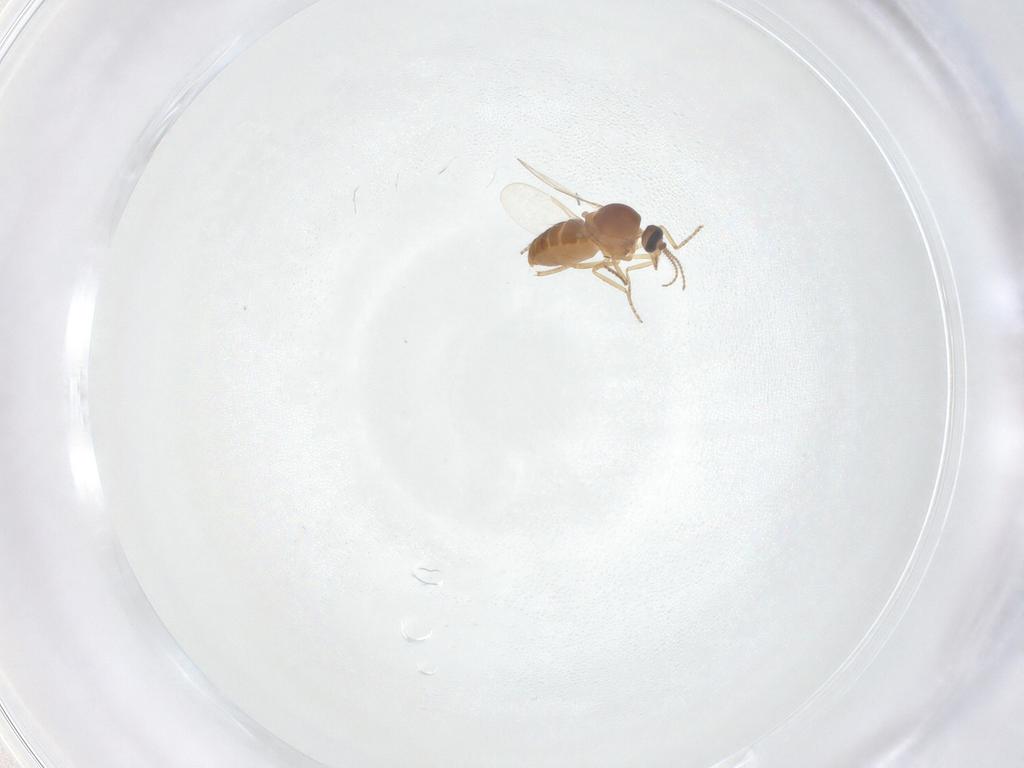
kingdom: Animalia
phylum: Arthropoda
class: Insecta
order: Diptera
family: Ceratopogonidae
